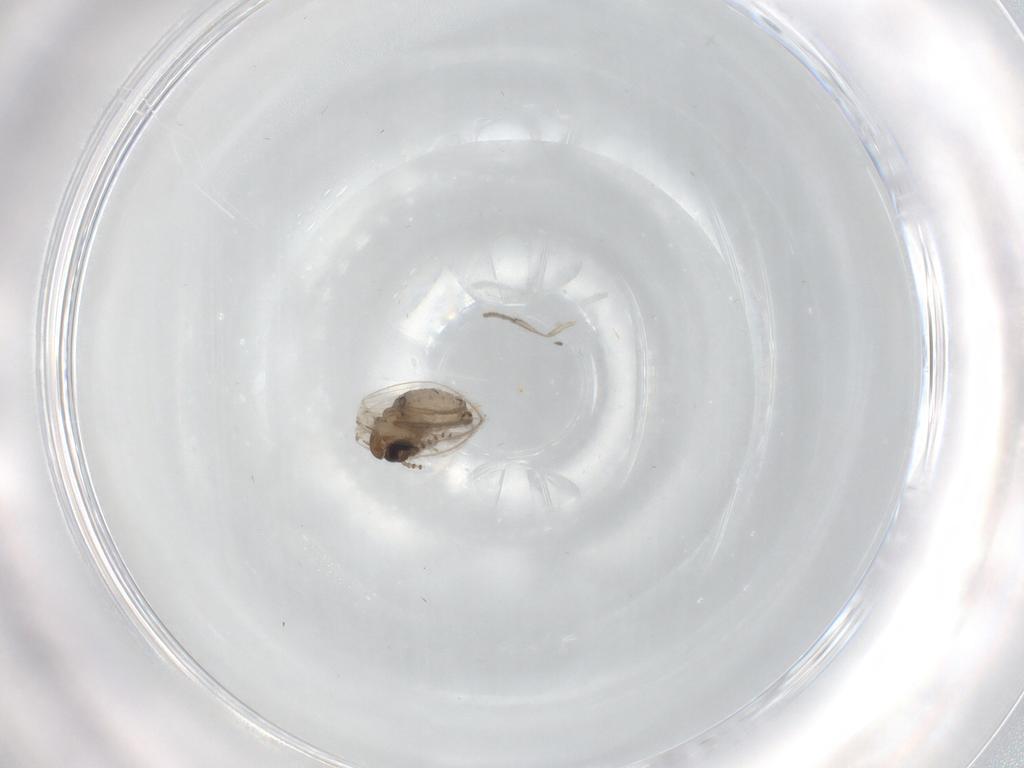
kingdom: Animalia
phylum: Arthropoda
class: Insecta
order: Diptera
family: Psychodidae
